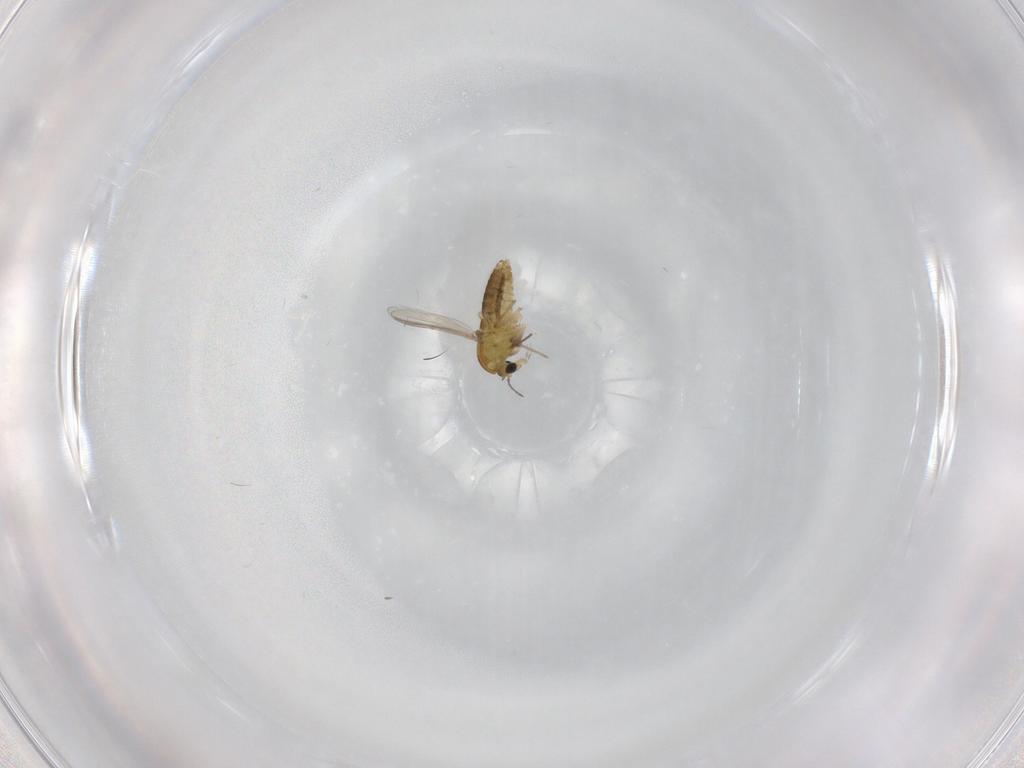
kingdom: Animalia
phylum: Arthropoda
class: Insecta
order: Diptera
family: Chironomidae
